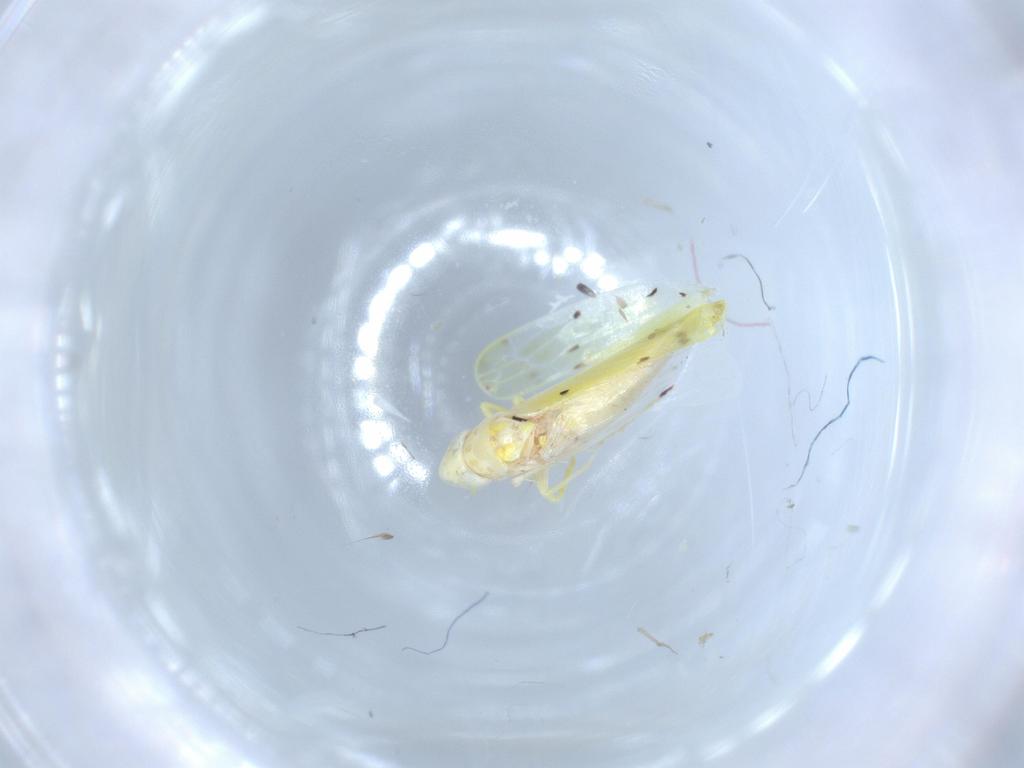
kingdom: Animalia
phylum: Arthropoda
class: Insecta
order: Hemiptera
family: Cicadellidae
